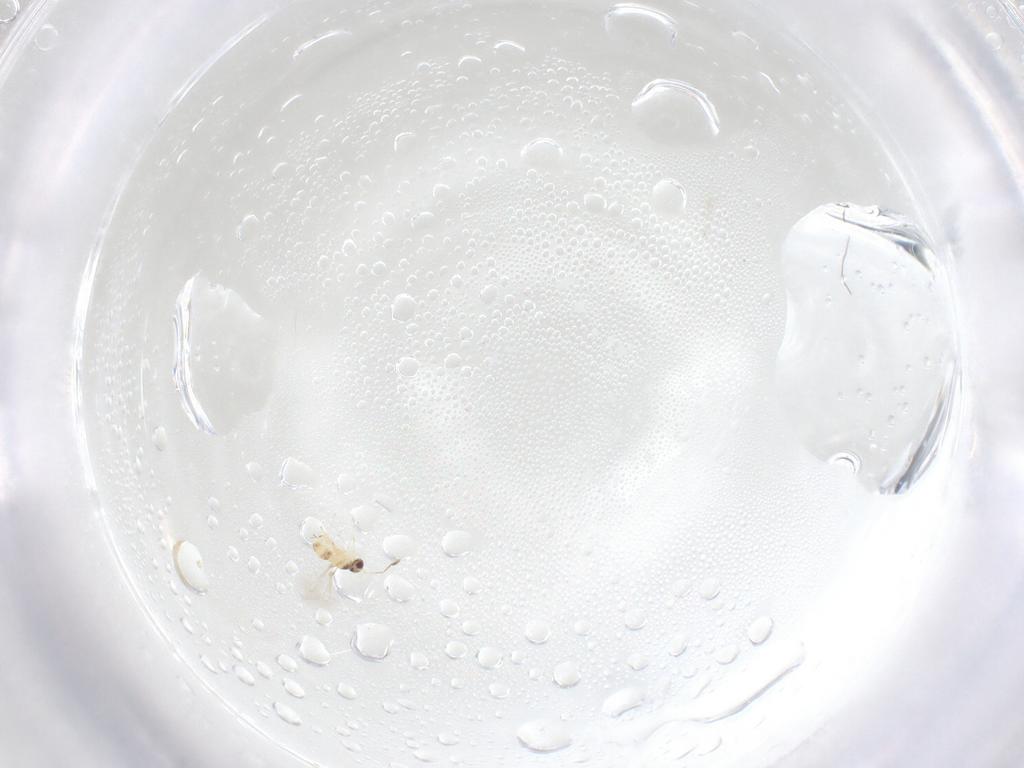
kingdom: Animalia
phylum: Arthropoda
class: Insecta
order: Hymenoptera
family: Mymaridae
